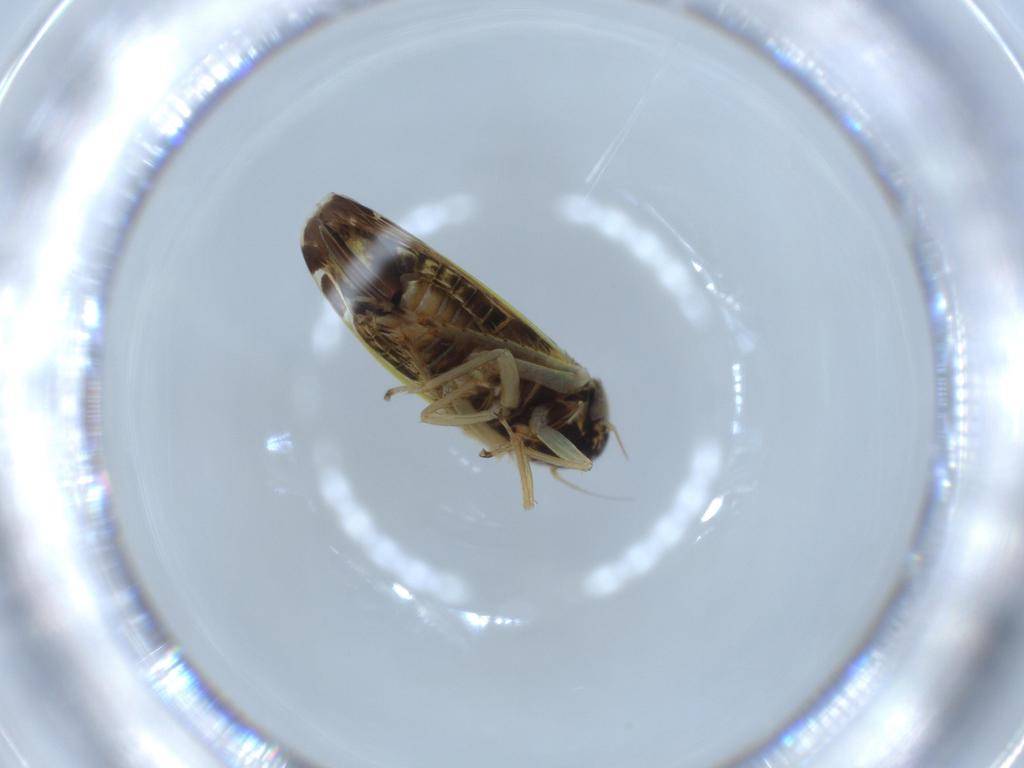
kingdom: Animalia
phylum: Arthropoda
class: Insecta
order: Hemiptera
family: Cicadellidae
